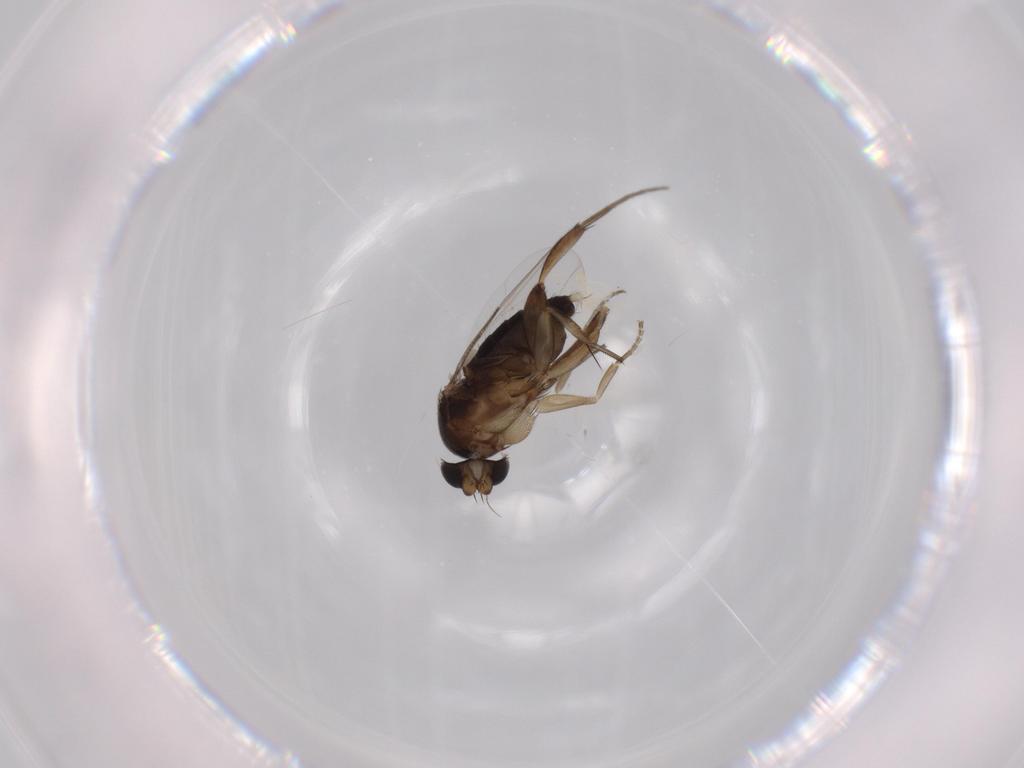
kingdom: Animalia
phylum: Arthropoda
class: Insecta
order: Diptera
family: Phoridae
